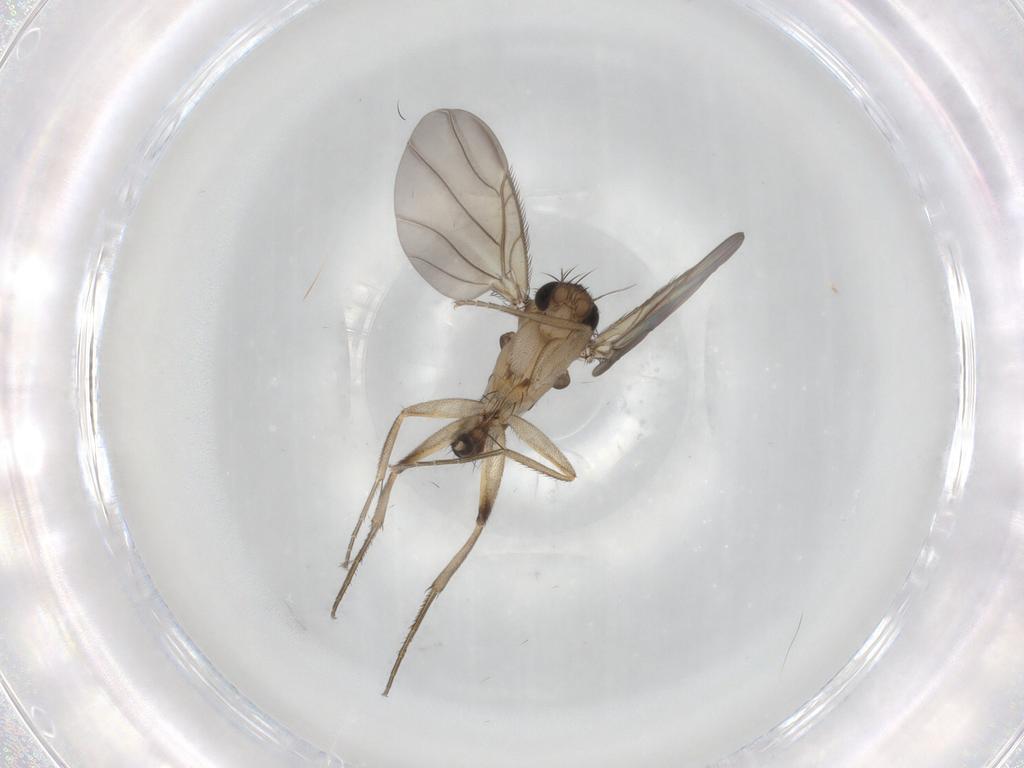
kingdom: Animalia
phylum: Arthropoda
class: Insecta
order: Diptera
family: Phoridae
